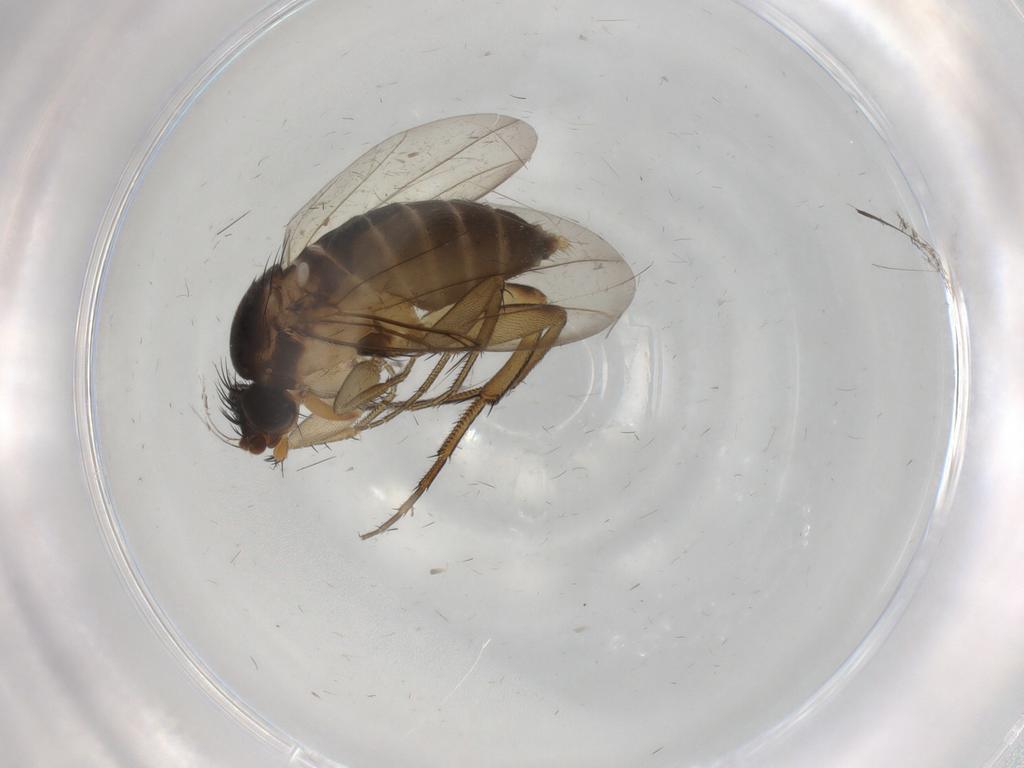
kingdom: Animalia
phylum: Arthropoda
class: Insecta
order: Diptera
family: Phoridae
